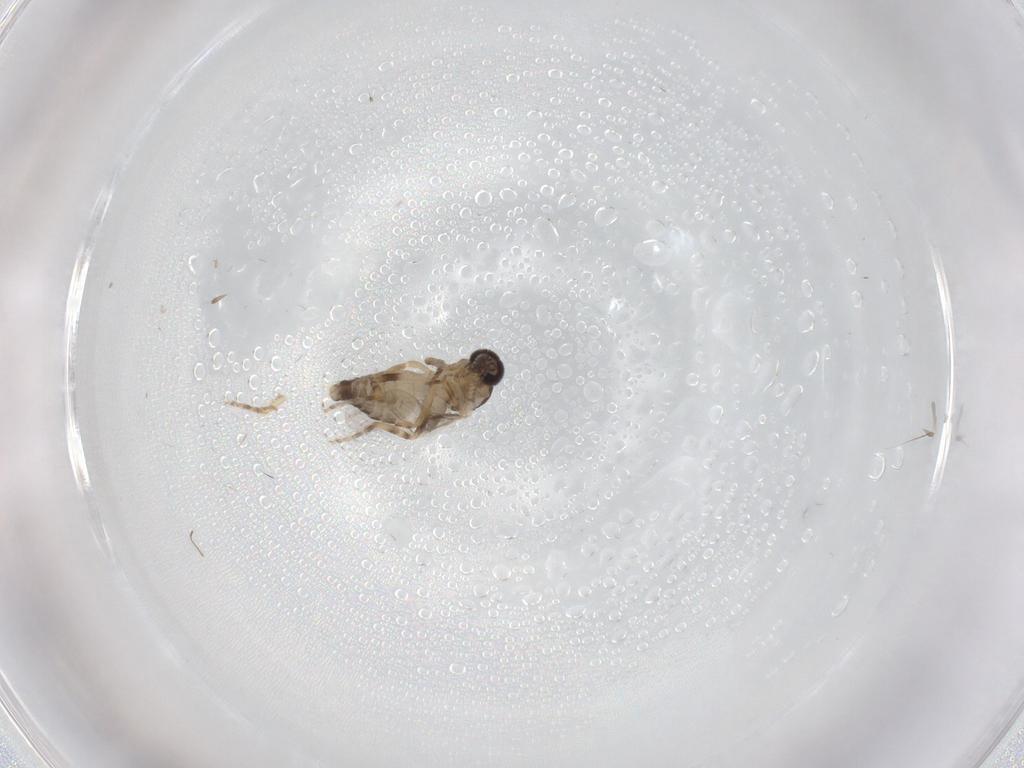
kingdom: Animalia
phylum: Arthropoda
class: Insecta
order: Diptera
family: Ceratopogonidae
